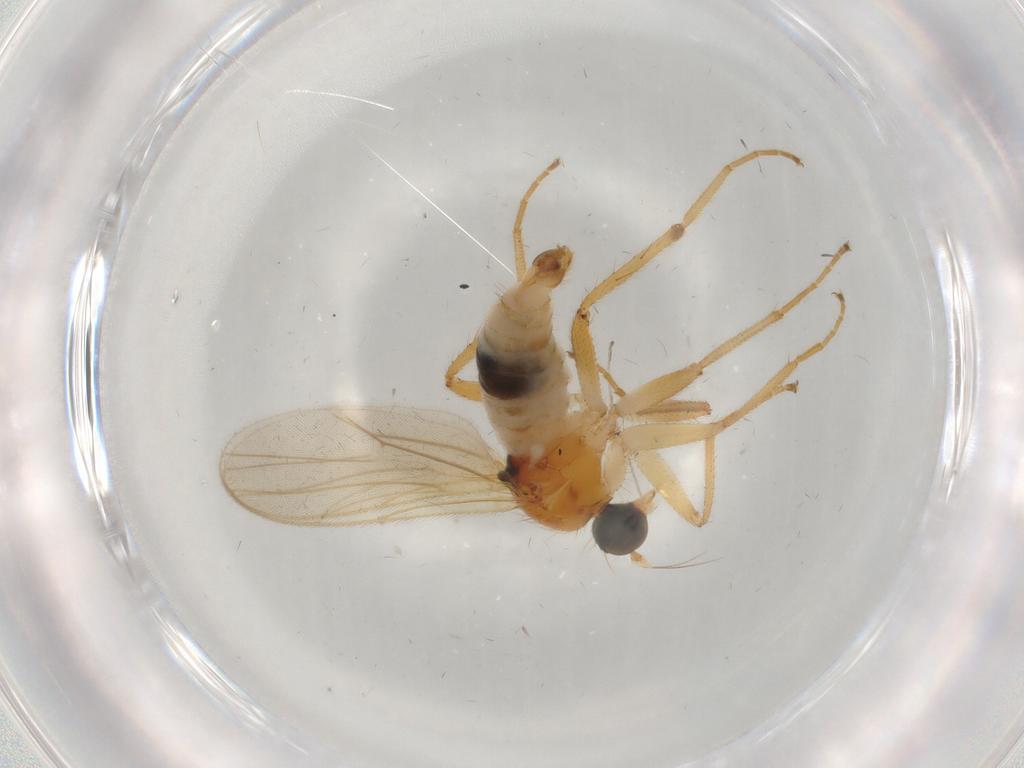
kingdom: Animalia
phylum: Arthropoda
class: Insecta
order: Diptera
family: Hybotidae
